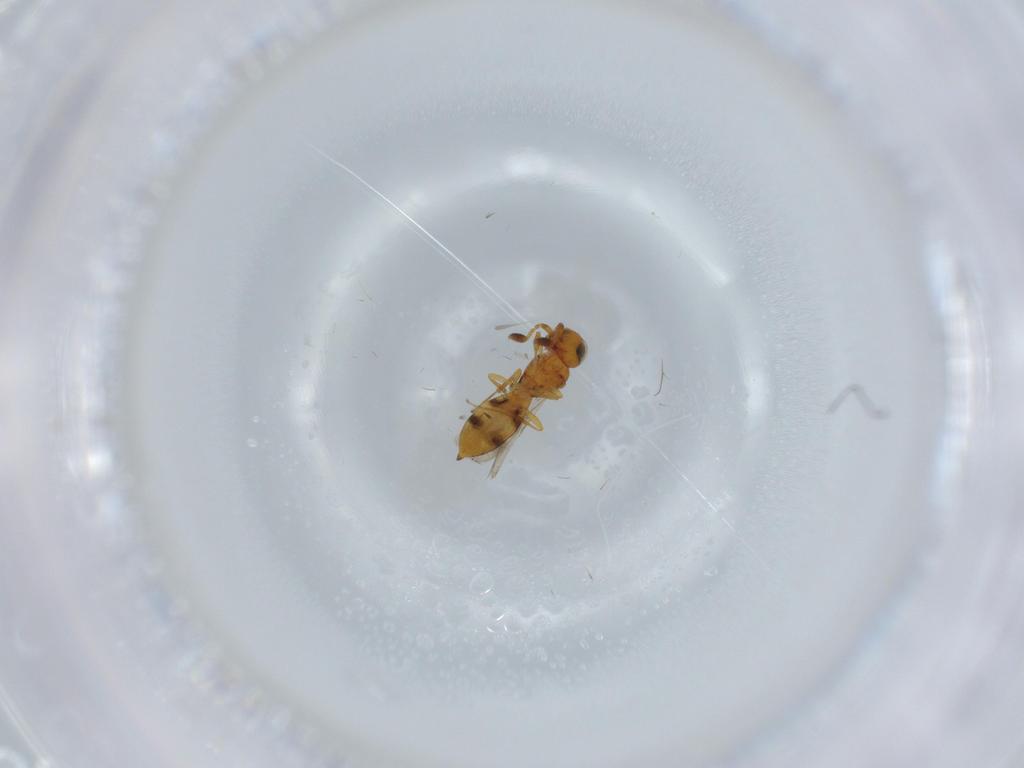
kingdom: Animalia
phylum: Arthropoda
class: Insecta
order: Hymenoptera
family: Scelionidae
